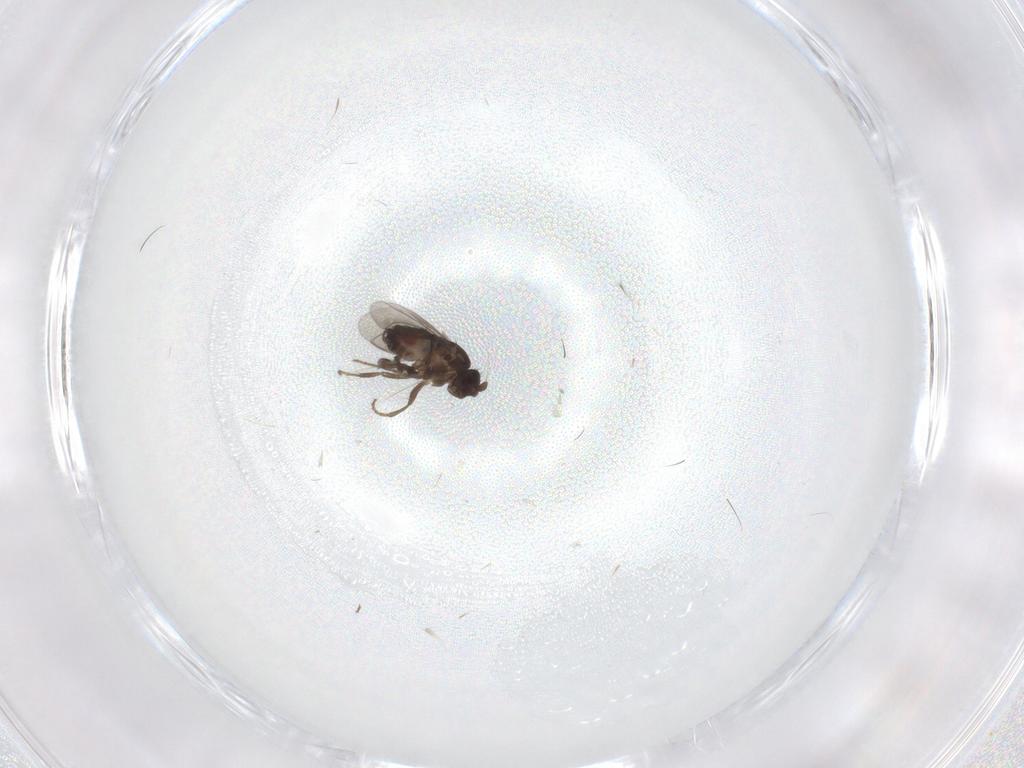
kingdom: Animalia
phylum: Arthropoda
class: Insecta
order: Diptera
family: Sphaeroceridae
